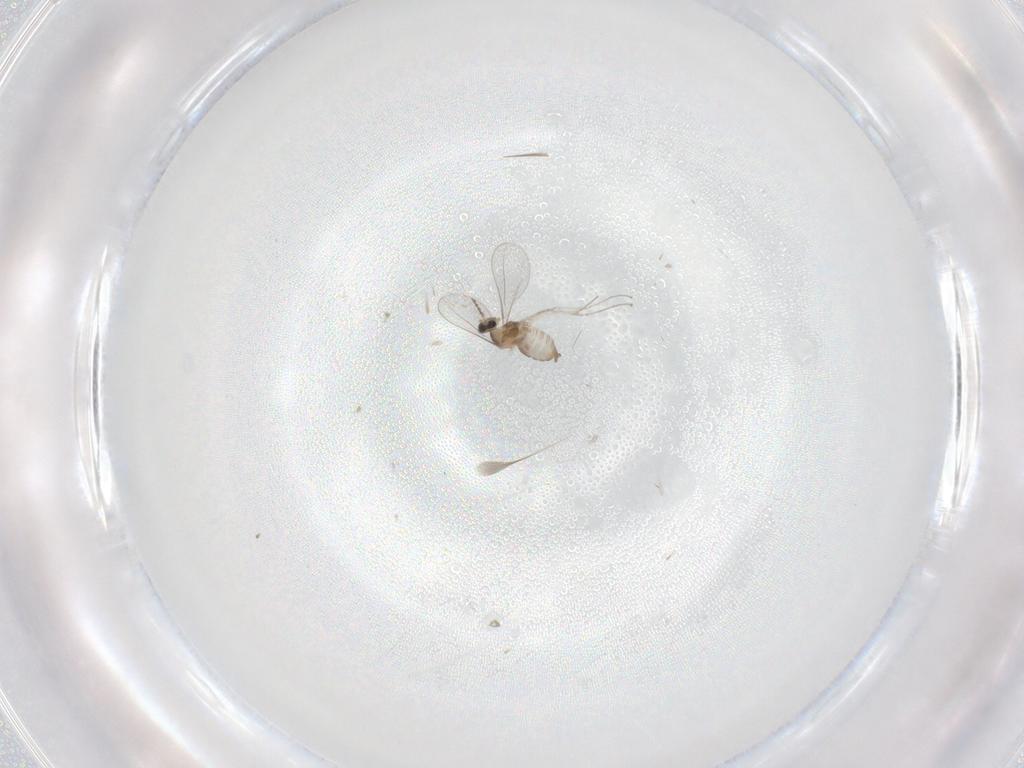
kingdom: Animalia
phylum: Arthropoda
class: Insecta
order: Diptera
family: Cecidomyiidae
